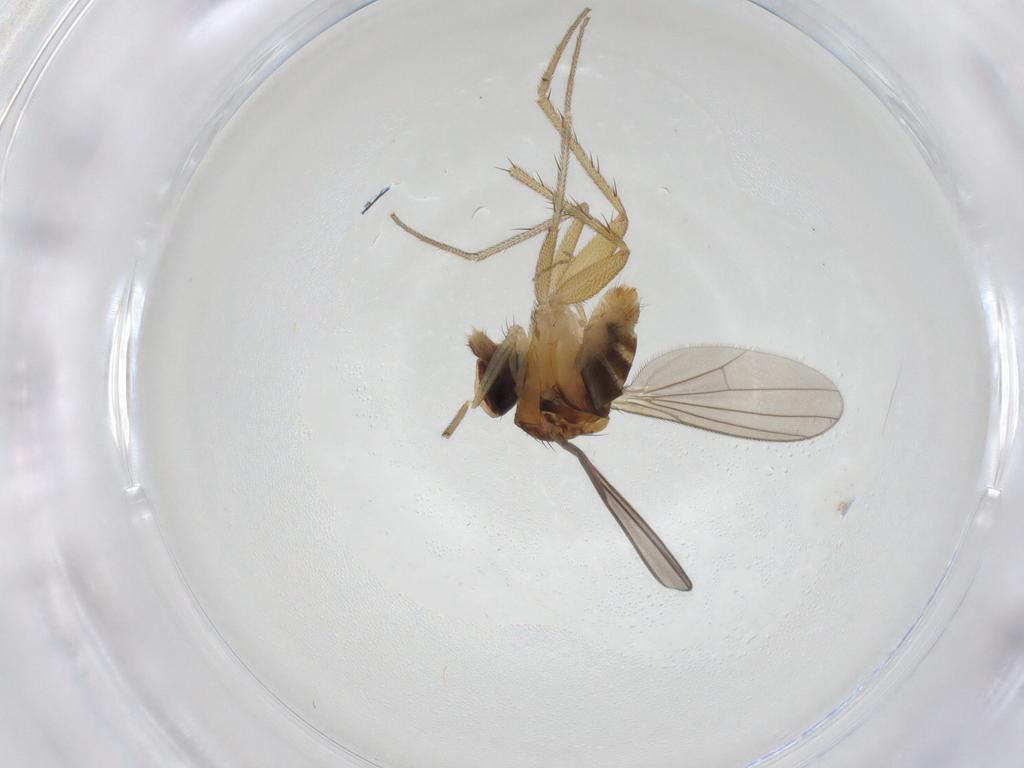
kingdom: Animalia
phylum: Arthropoda
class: Insecta
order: Diptera
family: Dolichopodidae
